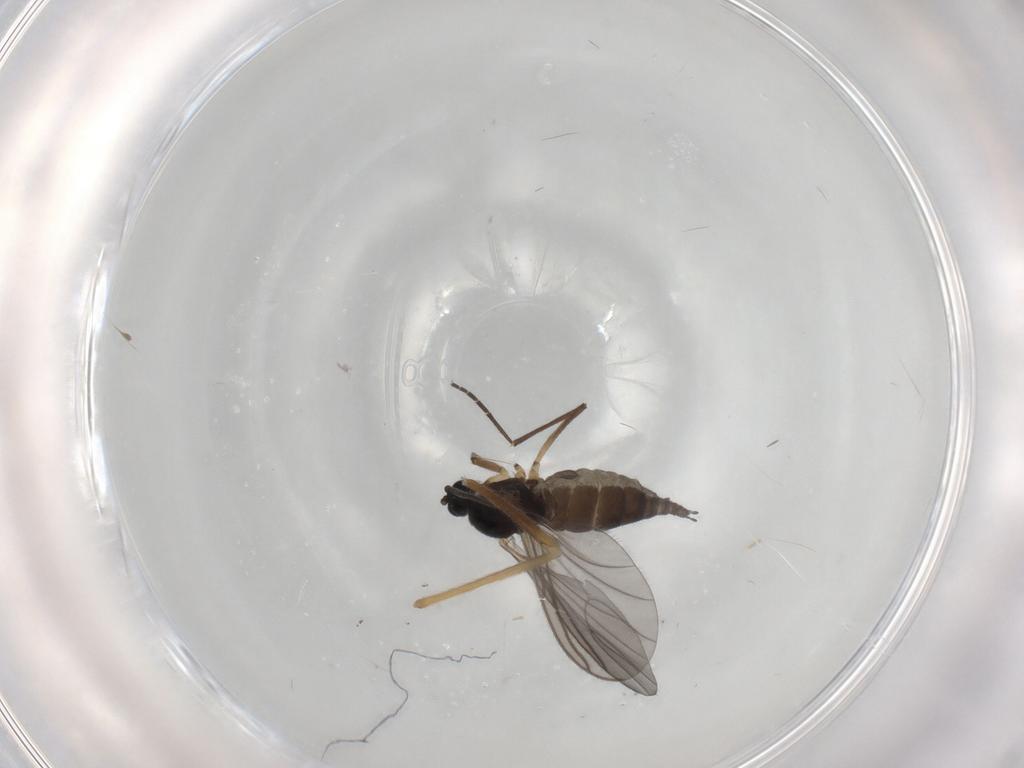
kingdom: Animalia
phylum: Arthropoda
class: Insecta
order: Diptera
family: Sciaridae
